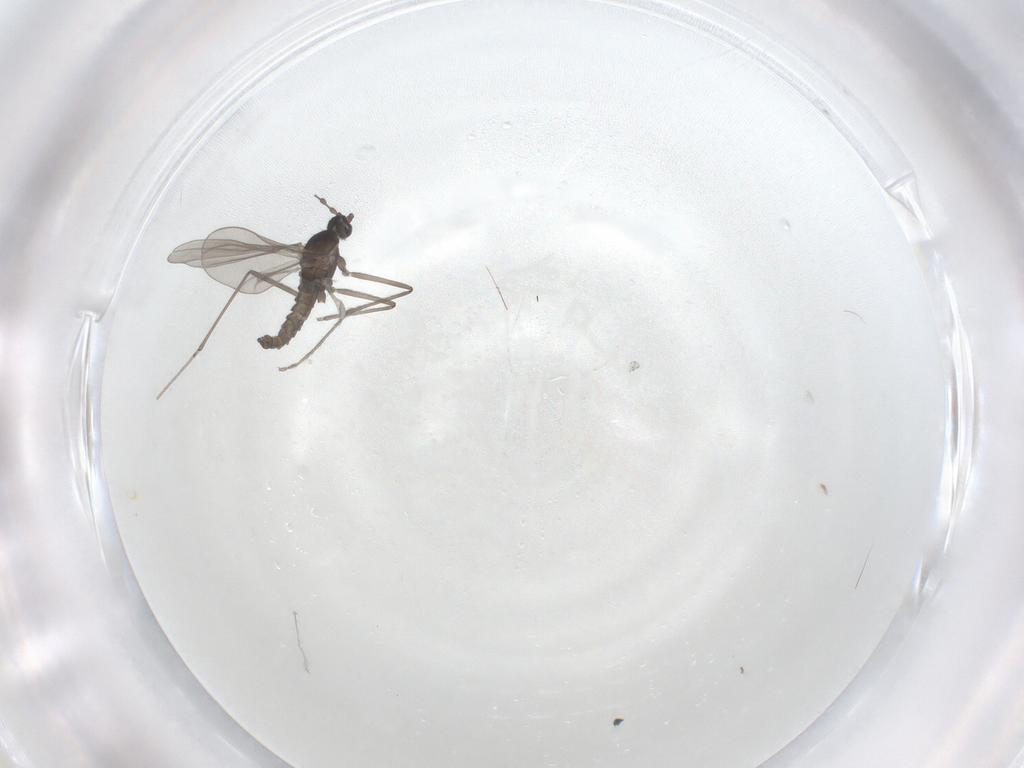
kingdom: Animalia
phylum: Arthropoda
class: Insecta
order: Diptera
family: Chironomidae
